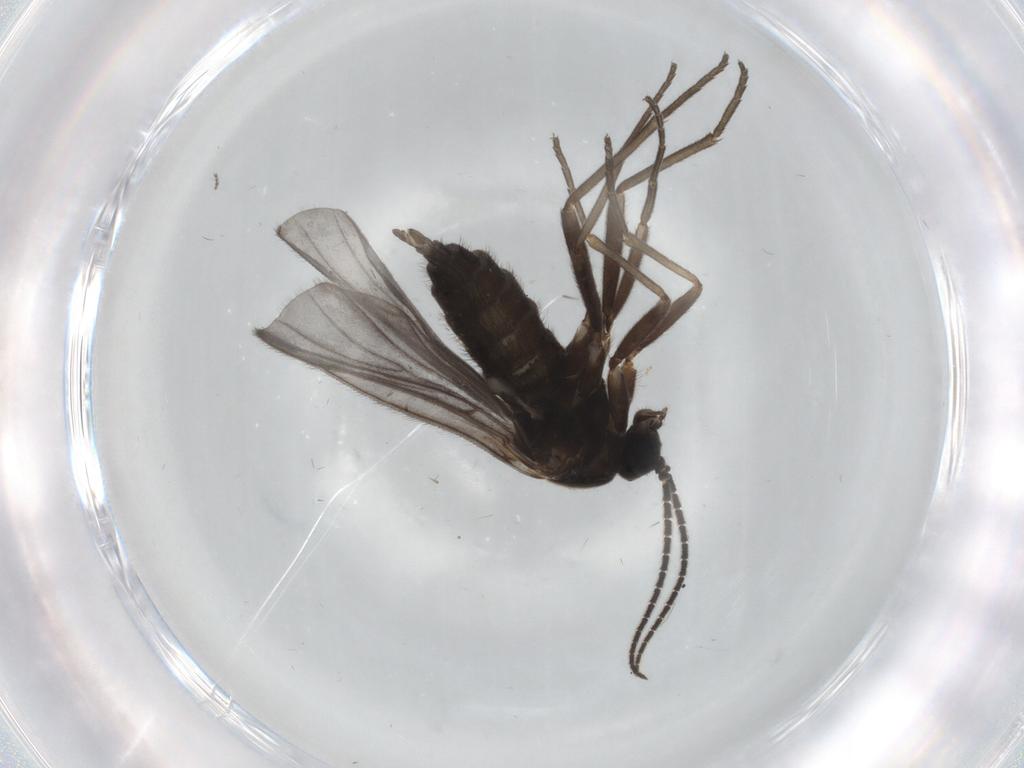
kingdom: Animalia
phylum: Arthropoda
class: Insecta
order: Diptera
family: Sciaridae
